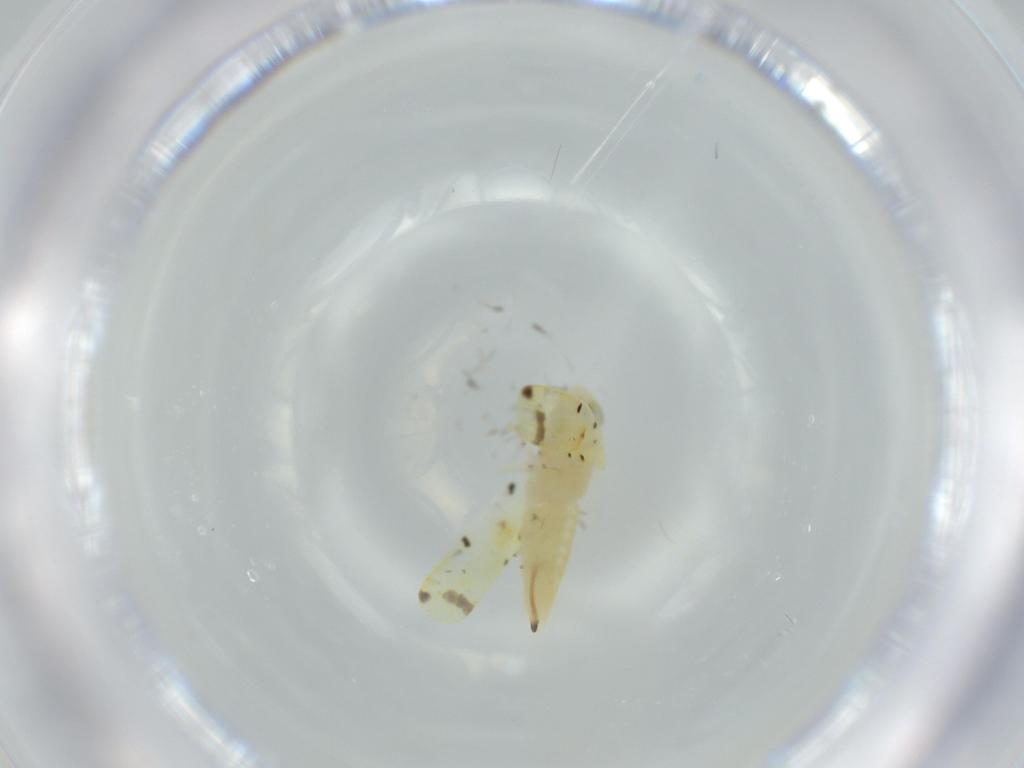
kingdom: Animalia
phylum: Arthropoda
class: Insecta
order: Hemiptera
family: Cicadellidae
